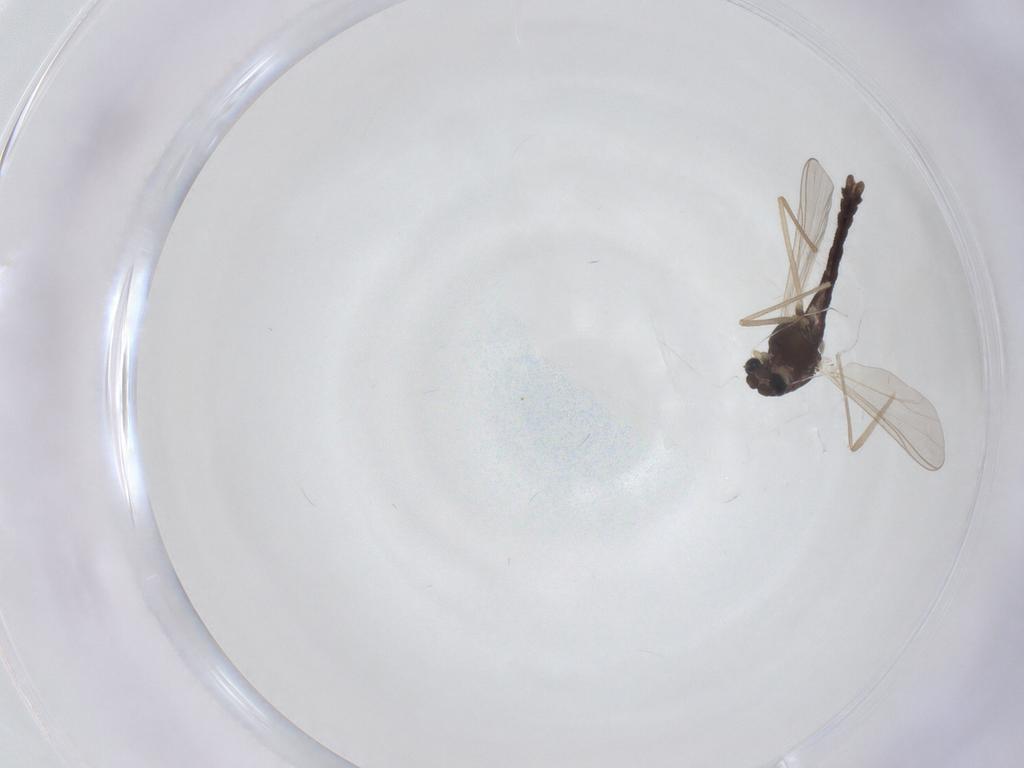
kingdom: Animalia
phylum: Arthropoda
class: Insecta
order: Diptera
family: Chironomidae
